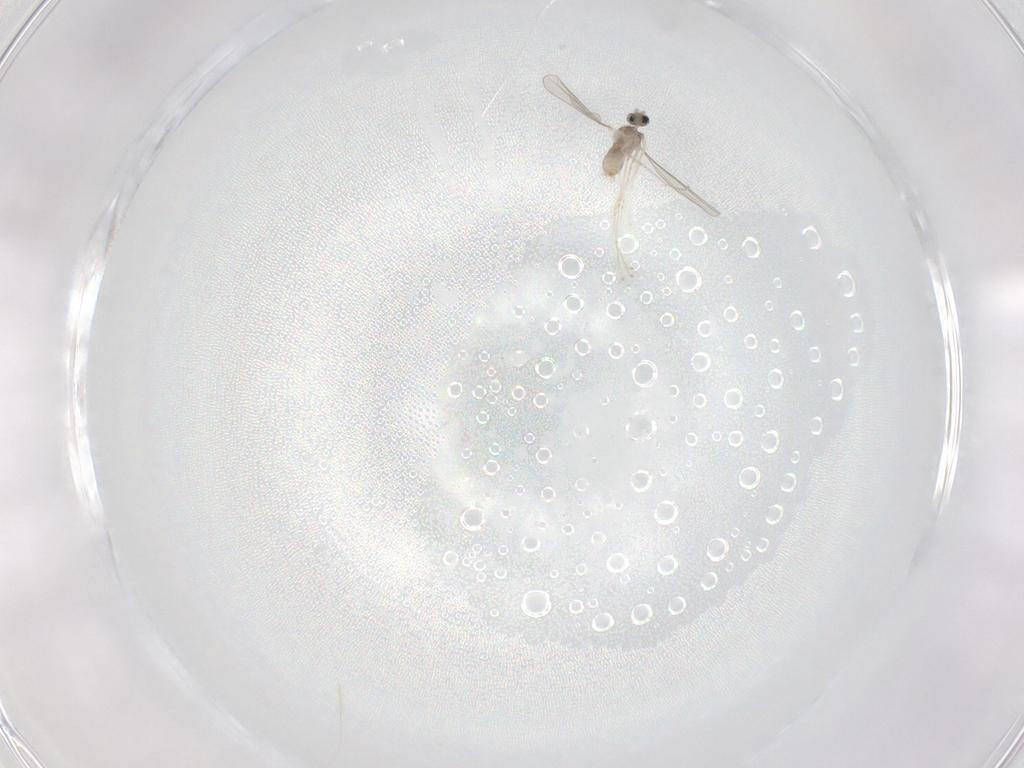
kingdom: Animalia
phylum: Arthropoda
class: Insecta
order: Diptera
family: Cecidomyiidae
